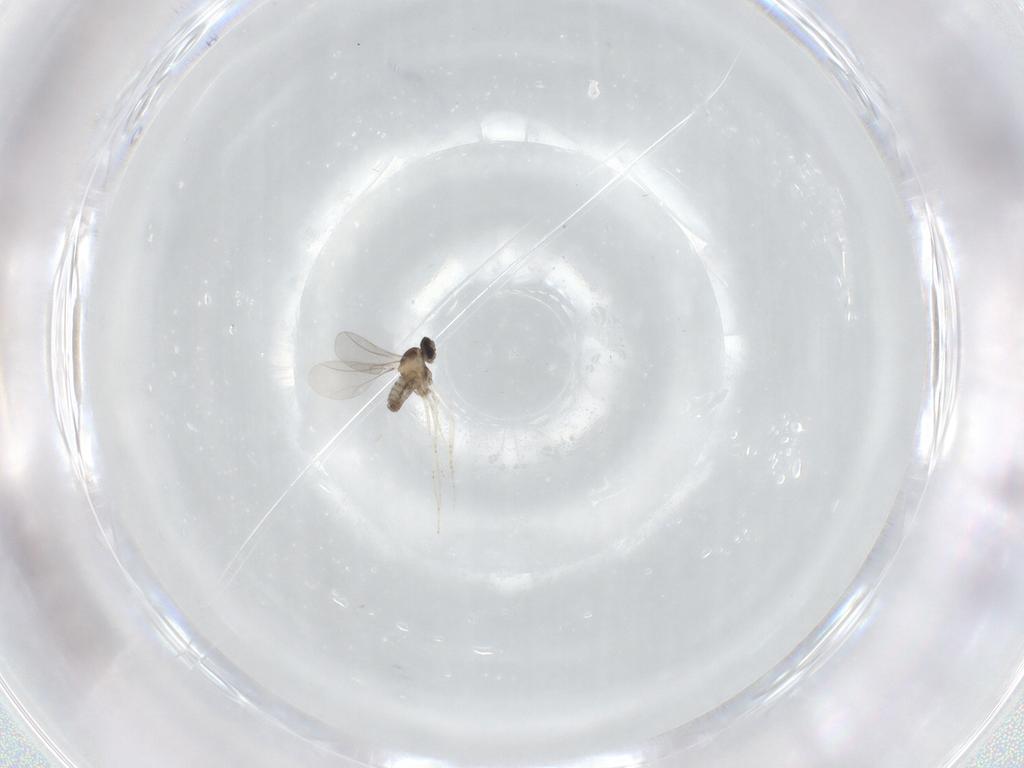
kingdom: Animalia
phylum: Arthropoda
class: Insecta
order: Diptera
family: Cecidomyiidae
